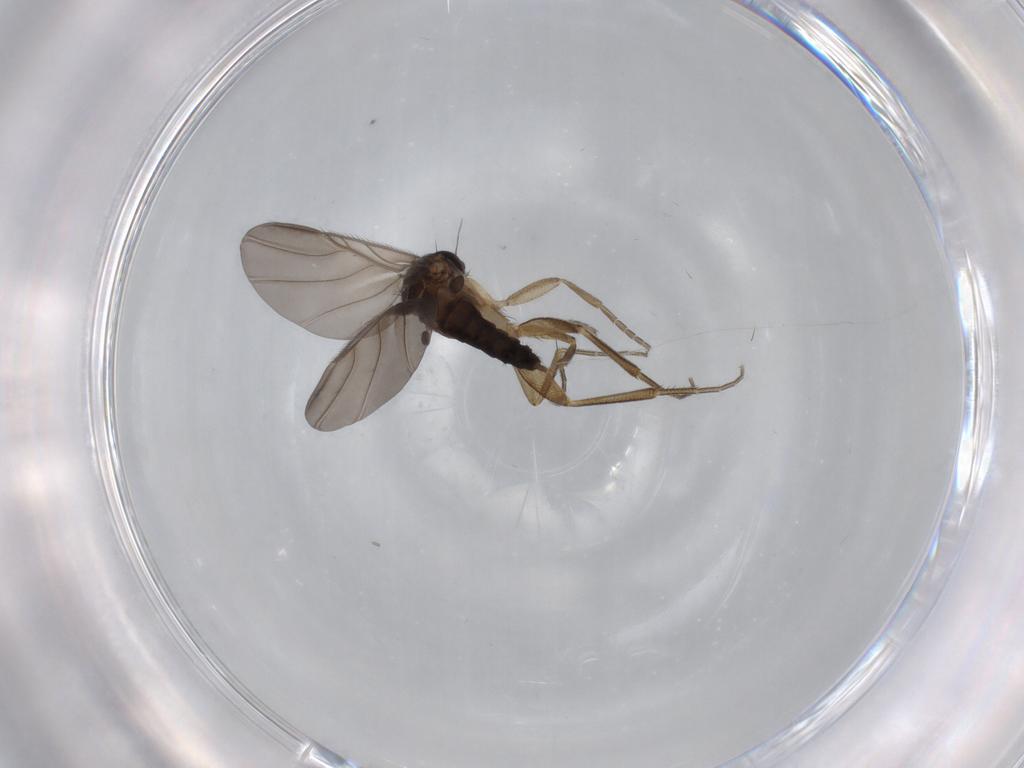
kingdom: Animalia
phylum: Arthropoda
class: Insecta
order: Diptera
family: Phoridae
